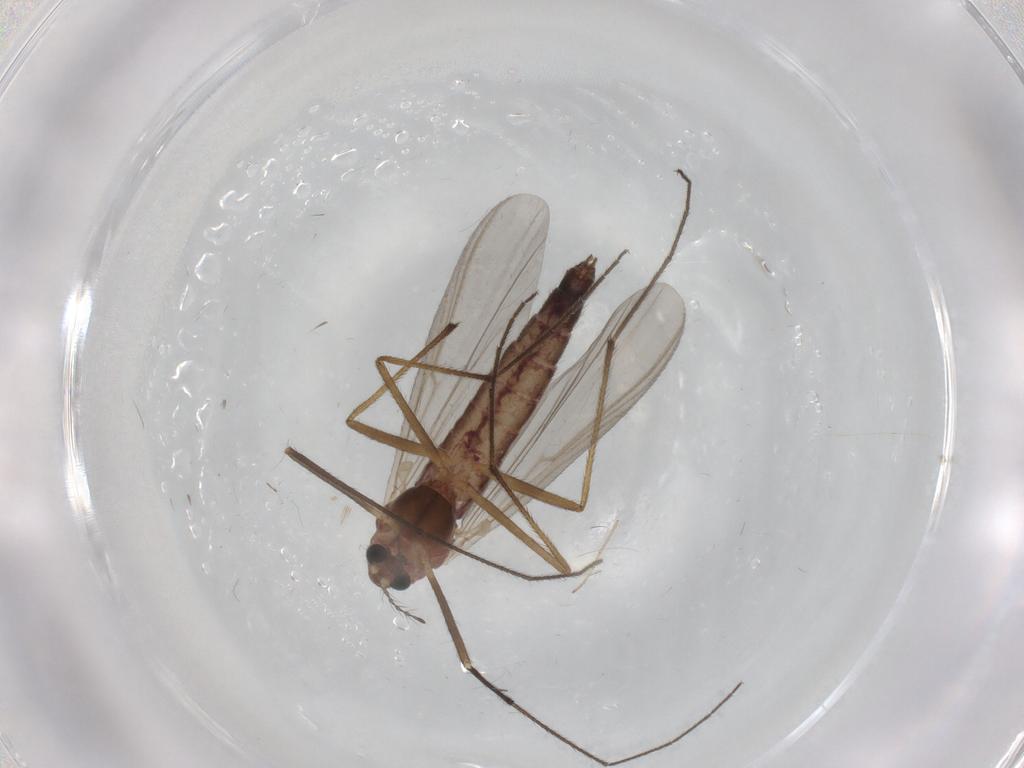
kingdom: Animalia
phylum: Arthropoda
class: Insecta
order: Diptera
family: Chironomidae
